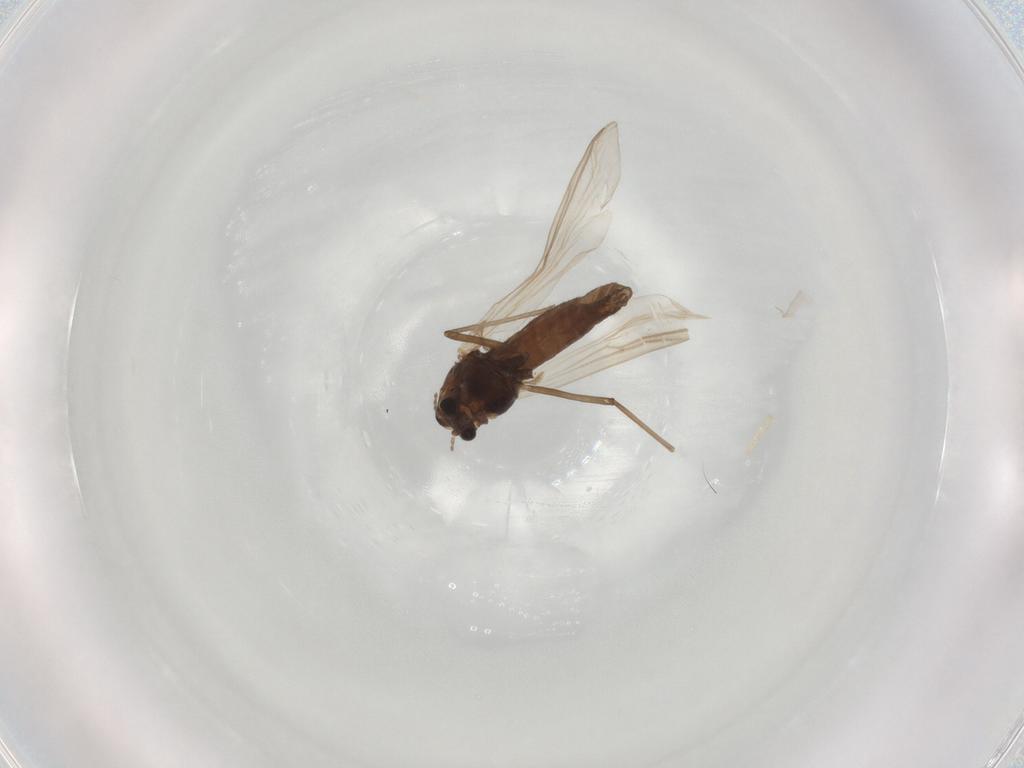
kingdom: Animalia
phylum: Arthropoda
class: Insecta
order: Diptera
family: Chironomidae
